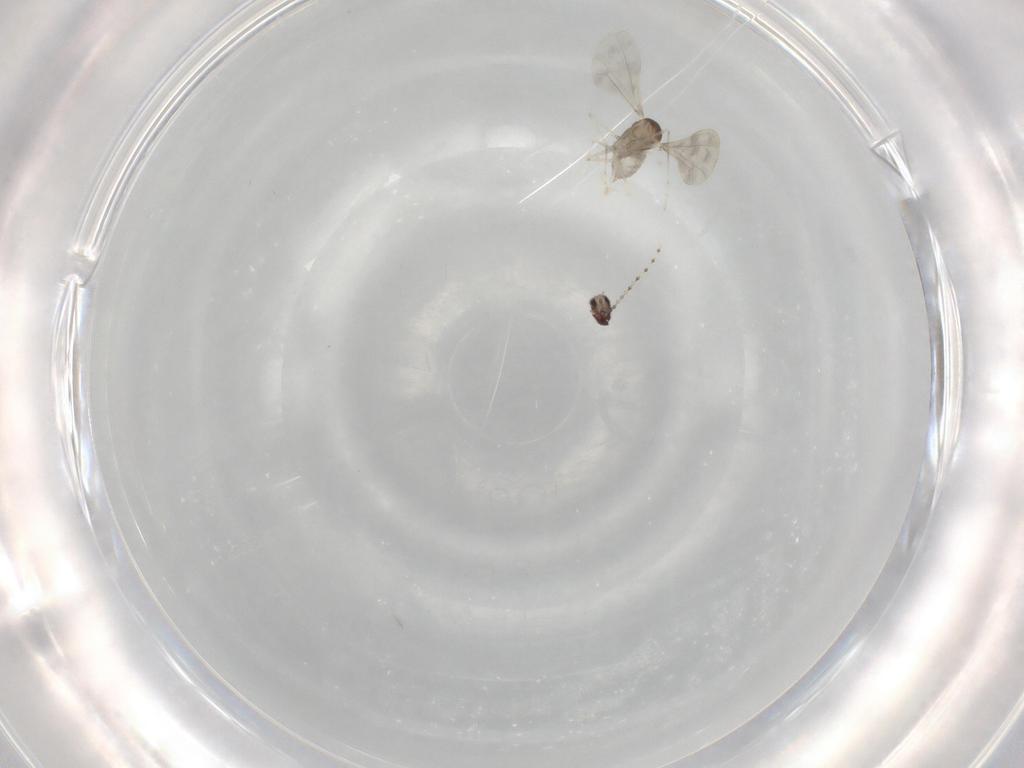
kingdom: Animalia
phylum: Arthropoda
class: Insecta
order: Diptera
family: Cecidomyiidae
